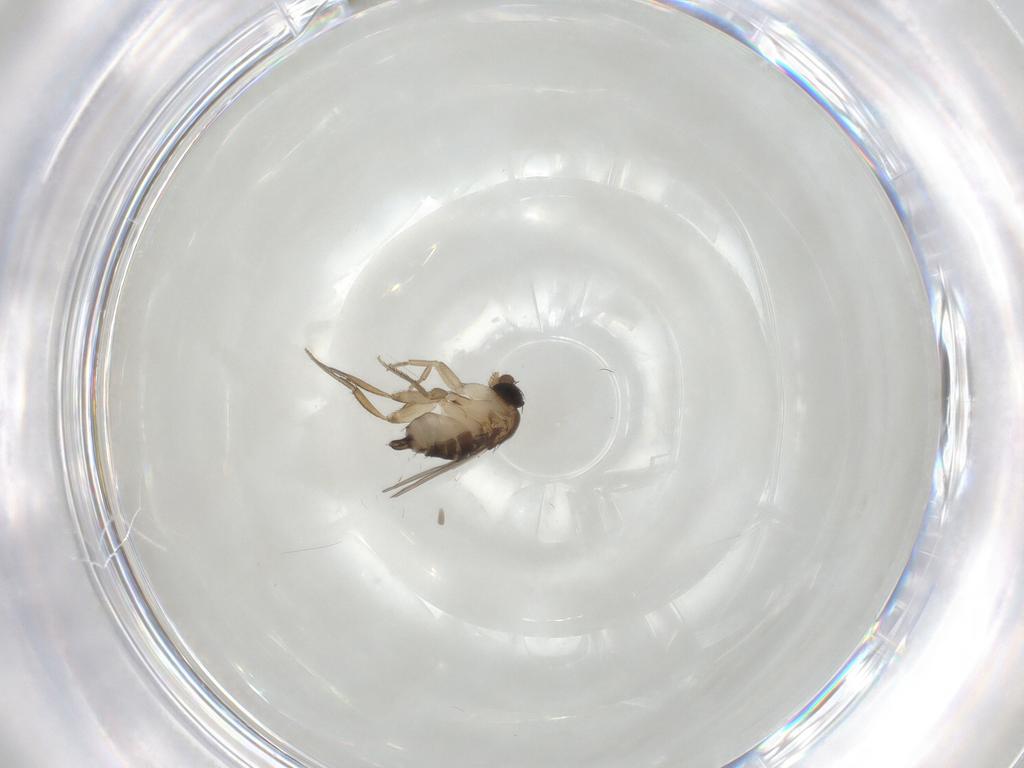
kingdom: Animalia
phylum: Arthropoda
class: Insecta
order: Diptera
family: Phoridae
